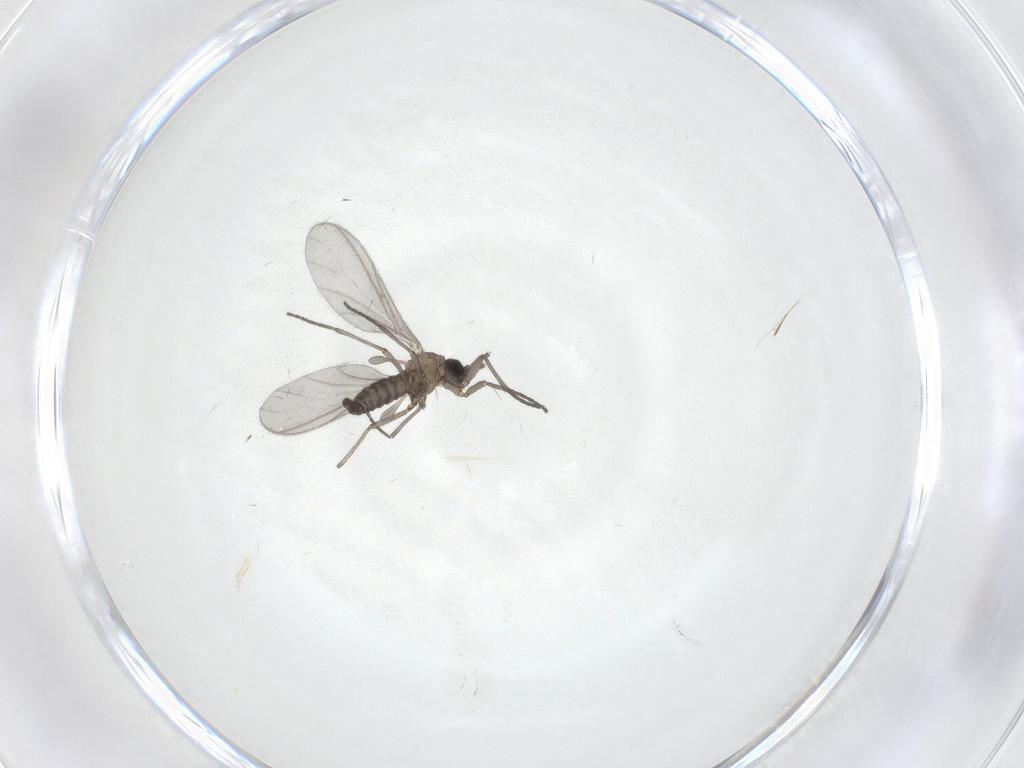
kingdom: Animalia
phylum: Arthropoda
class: Insecta
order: Diptera
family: Sciaridae
